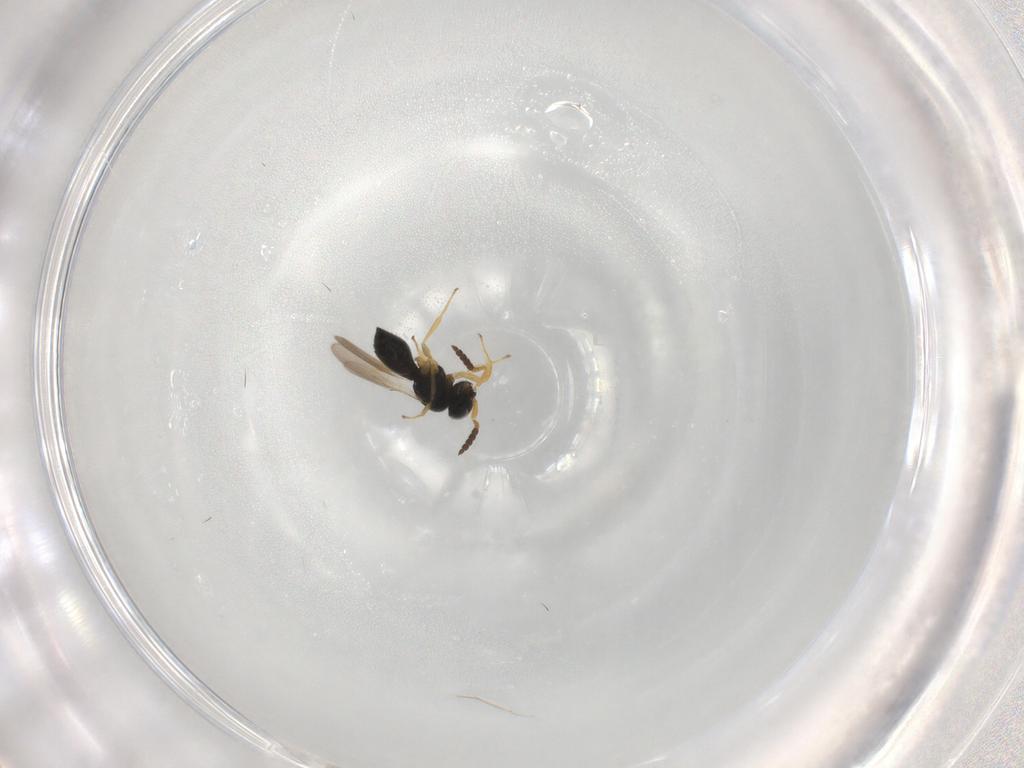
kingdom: Animalia
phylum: Arthropoda
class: Insecta
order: Hymenoptera
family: Scelionidae
